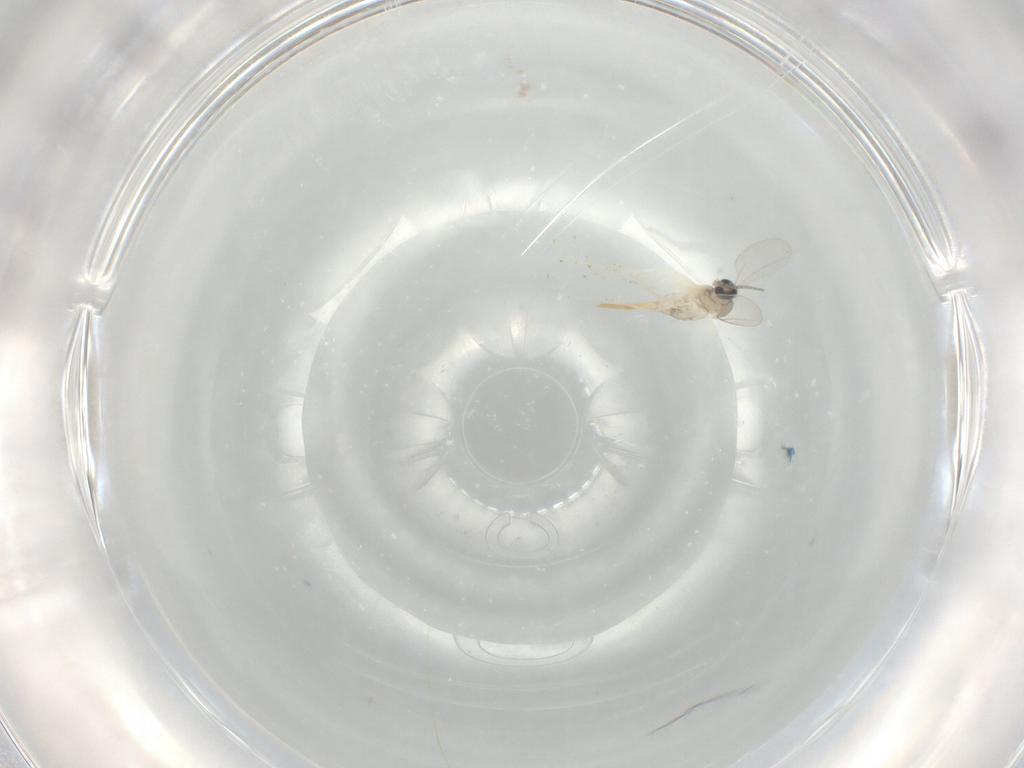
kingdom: Animalia
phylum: Arthropoda
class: Insecta
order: Diptera
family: Cecidomyiidae
